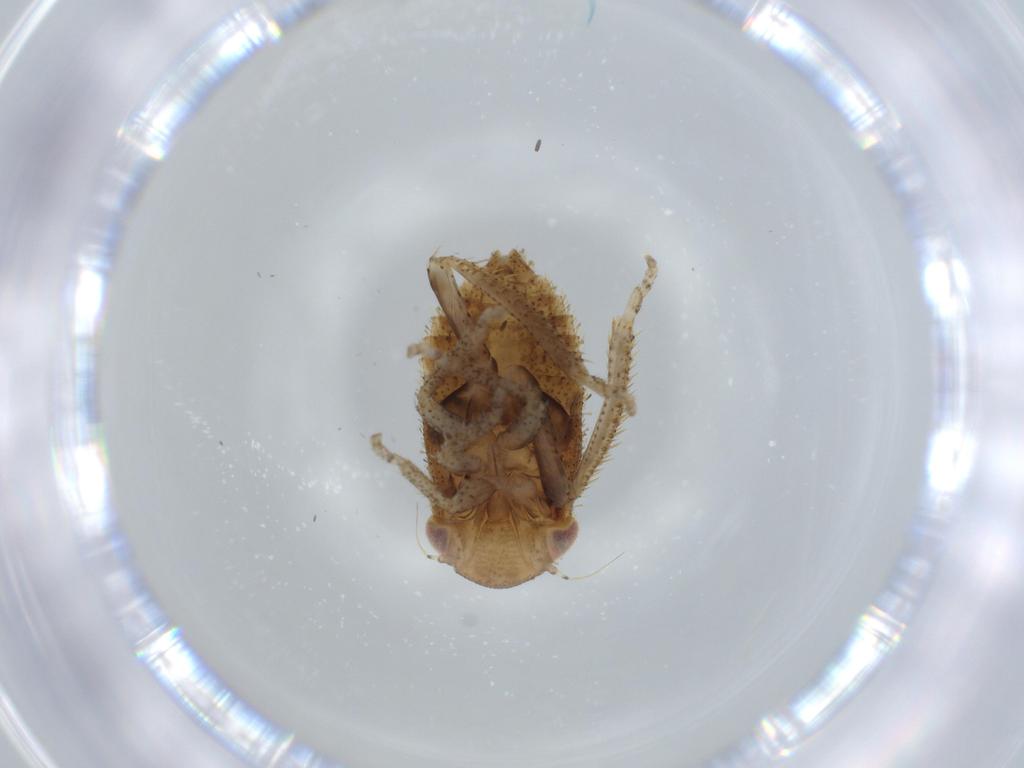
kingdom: Animalia
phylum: Arthropoda
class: Insecta
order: Hemiptera
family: Cicadellidae
